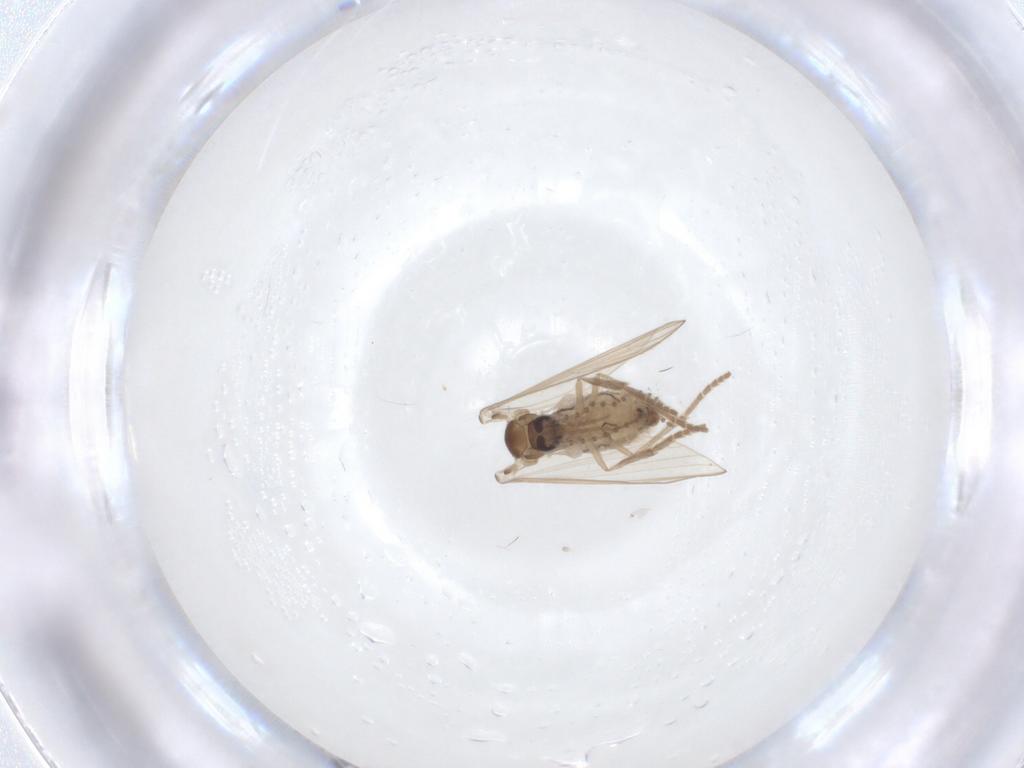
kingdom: Animalia
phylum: Arthropoda
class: Insecta
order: Diptera
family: Psychodidae
